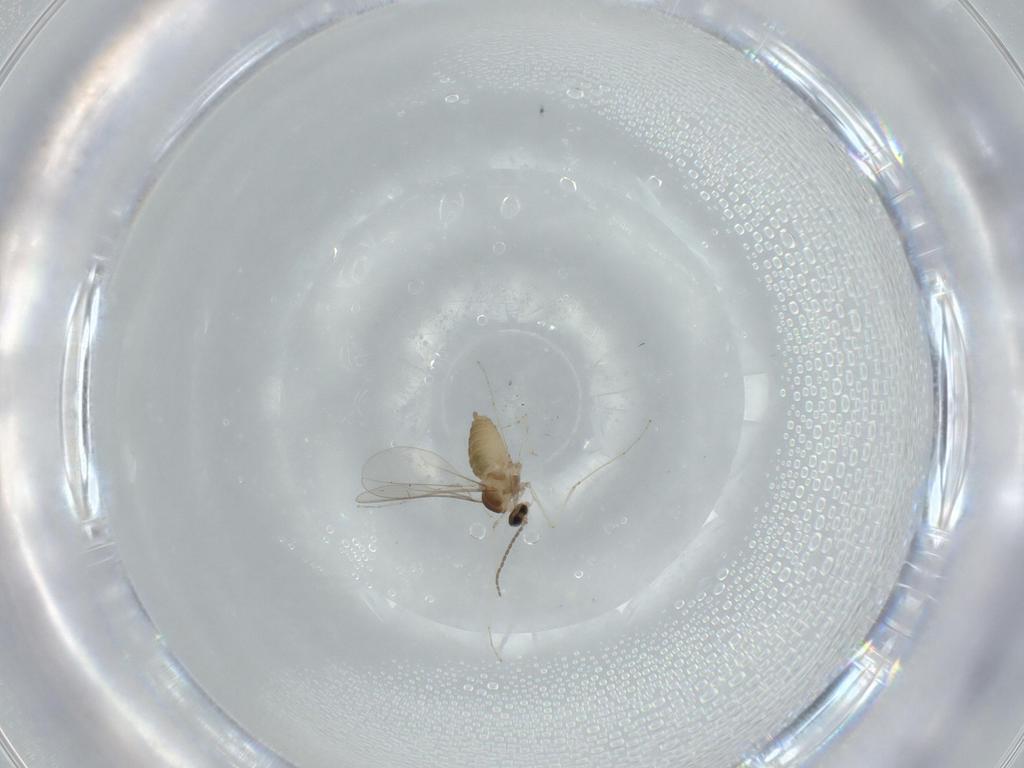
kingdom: Animalia
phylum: Arthropoda
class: Insecta
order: Diptera
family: Cecidomyiidae
